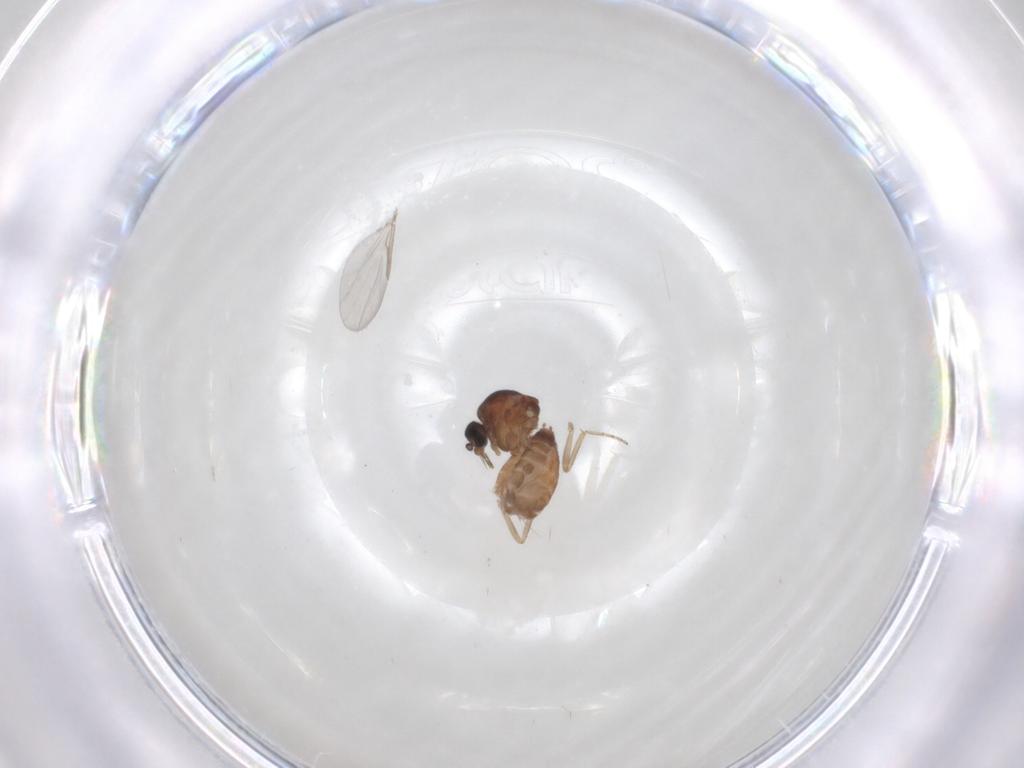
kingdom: Animalia
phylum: Arthropoda
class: Insecta
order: Diptera
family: Ceratopogonidae
